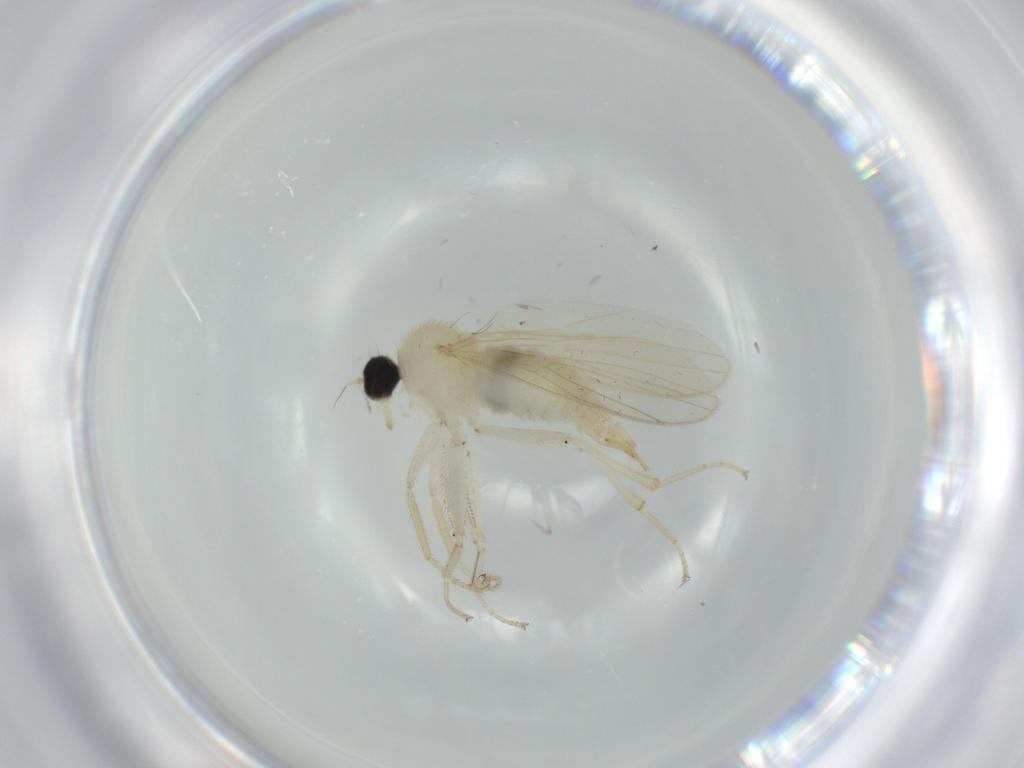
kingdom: Animalia
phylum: Arthropoda
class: Insecta
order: Diptera
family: Hybotidae
